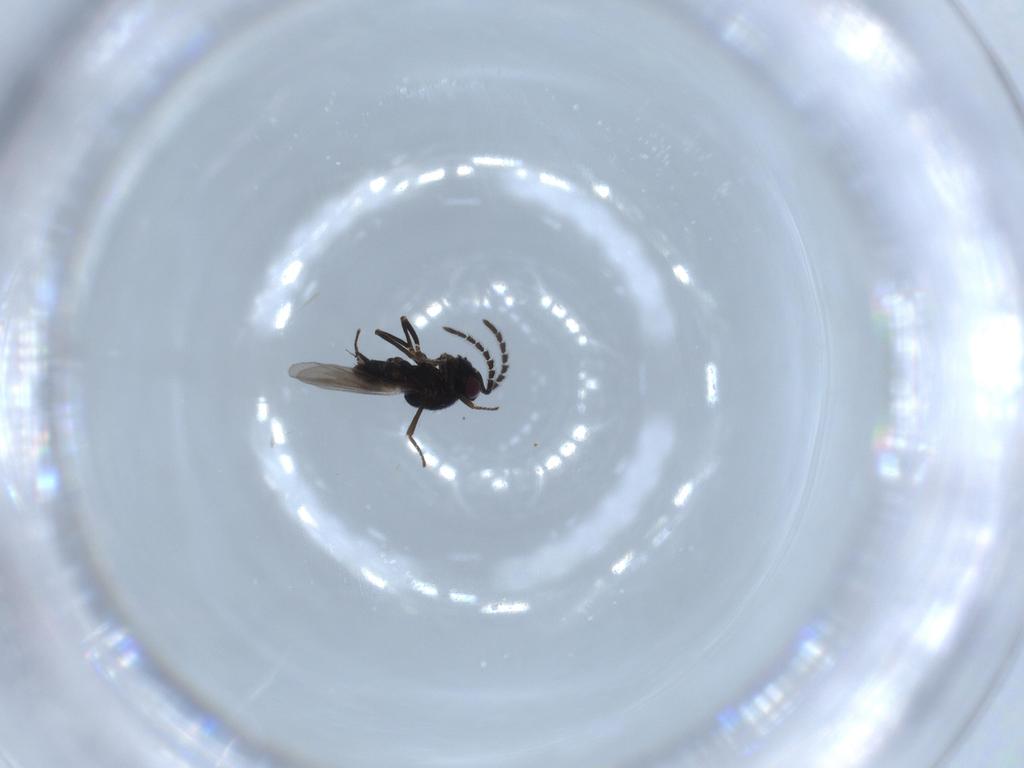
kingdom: Animalia
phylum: Arthropoda
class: Insecta
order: Hymenoptera
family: Encyrtidae
